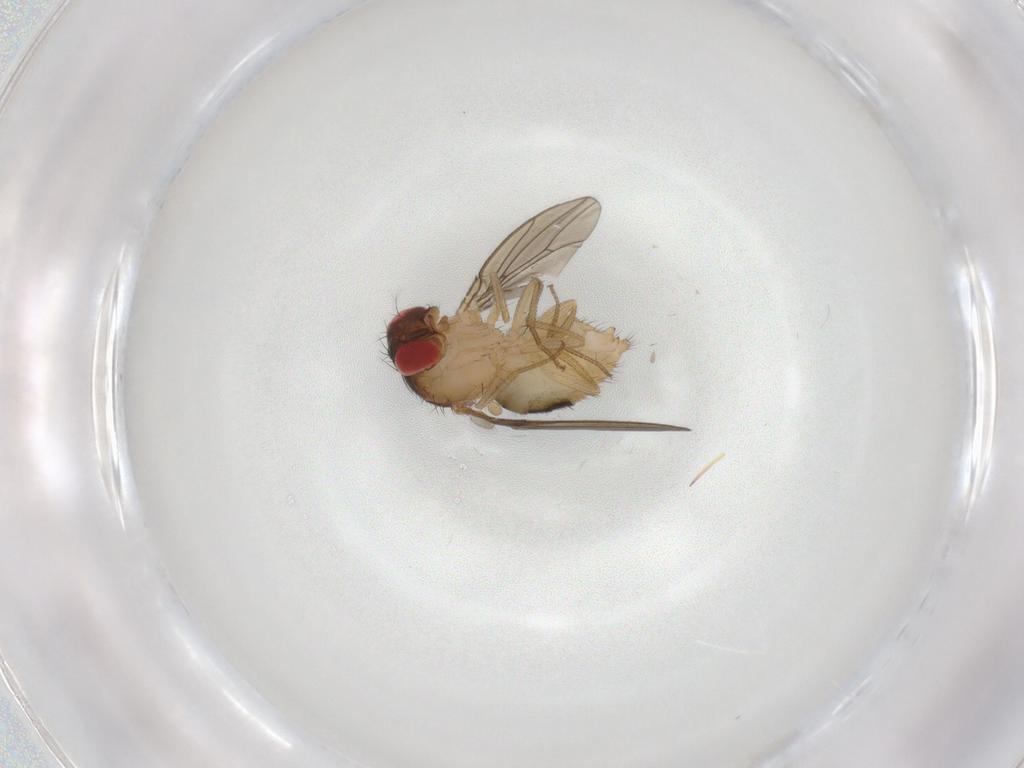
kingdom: Animalia
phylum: Arthropoda
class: Insecta
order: Diptera
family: Drosophilidae
